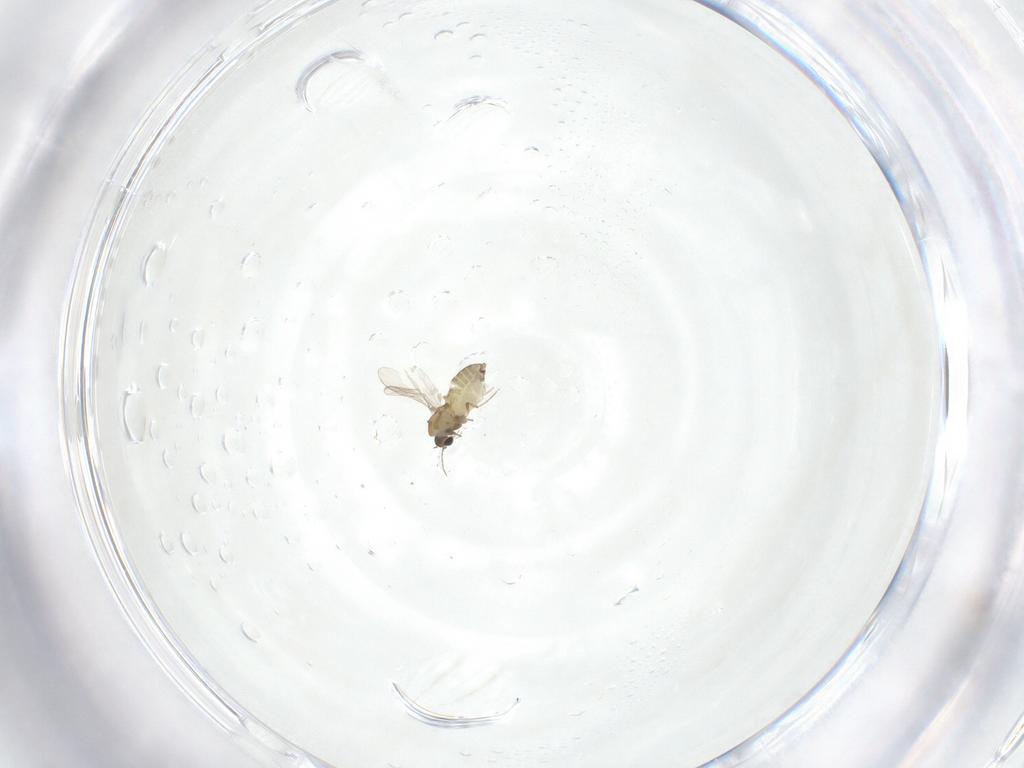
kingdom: Animalia
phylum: Arthropoda
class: Insecta
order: Diptera
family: Chironomidae
